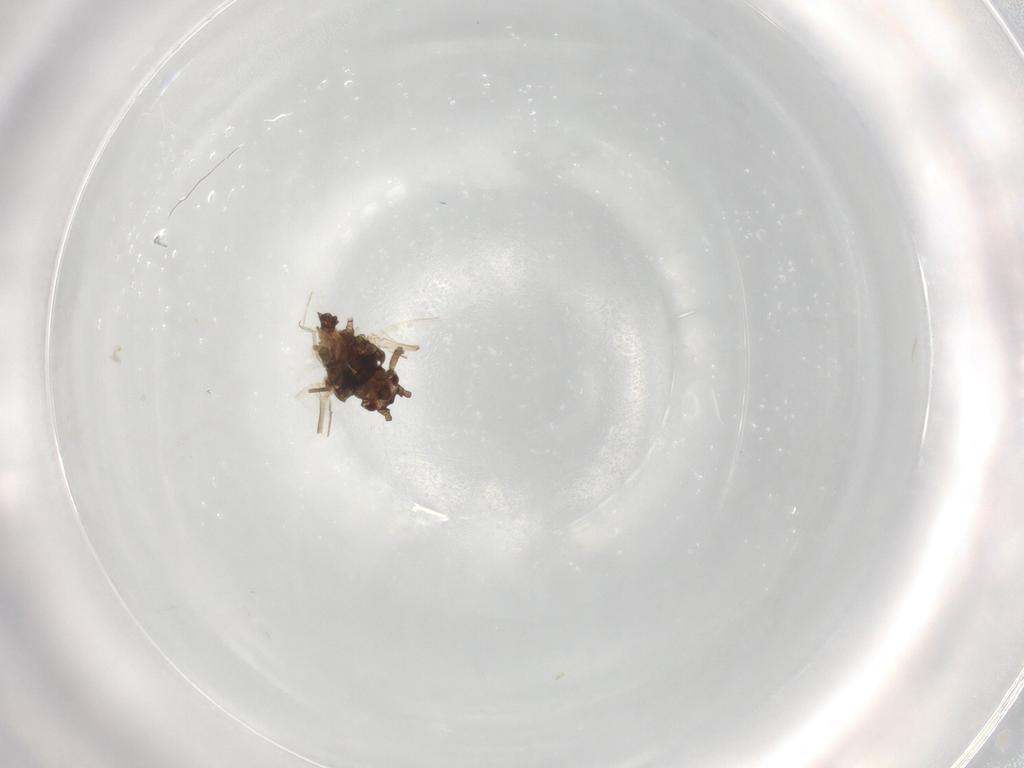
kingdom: Animalia
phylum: Arthropoda
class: Insecta
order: Hemiptera
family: Aphididae
